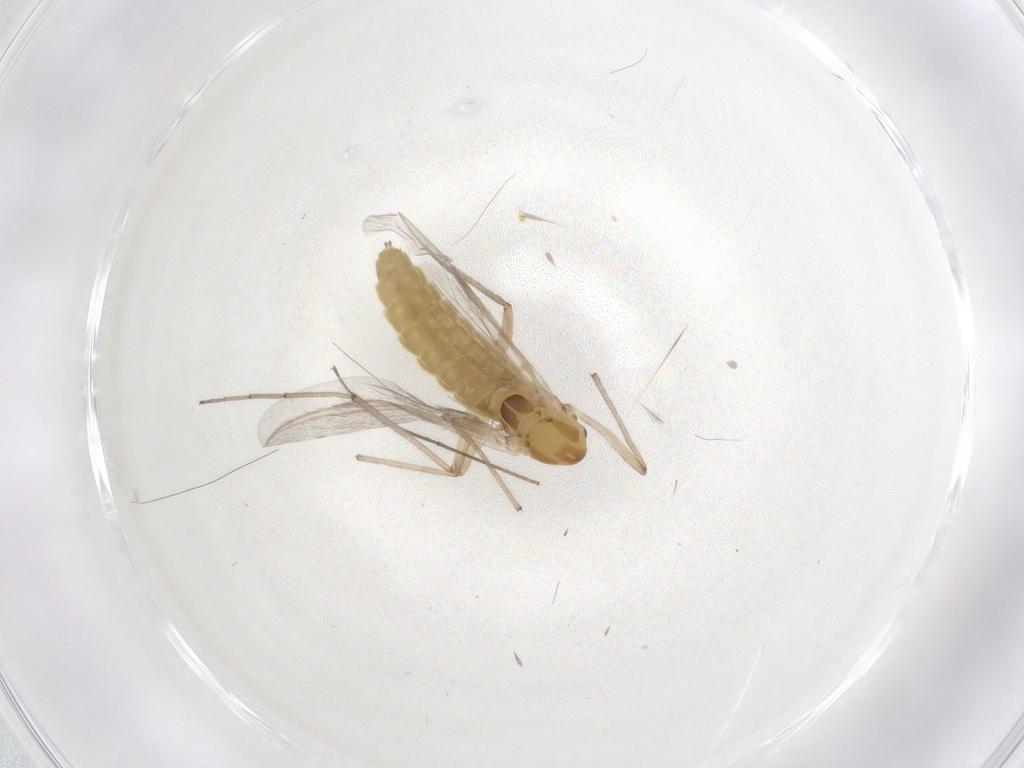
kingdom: Animalia
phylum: Arthropoda
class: Insecta
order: Diptera
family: Chironomidae
